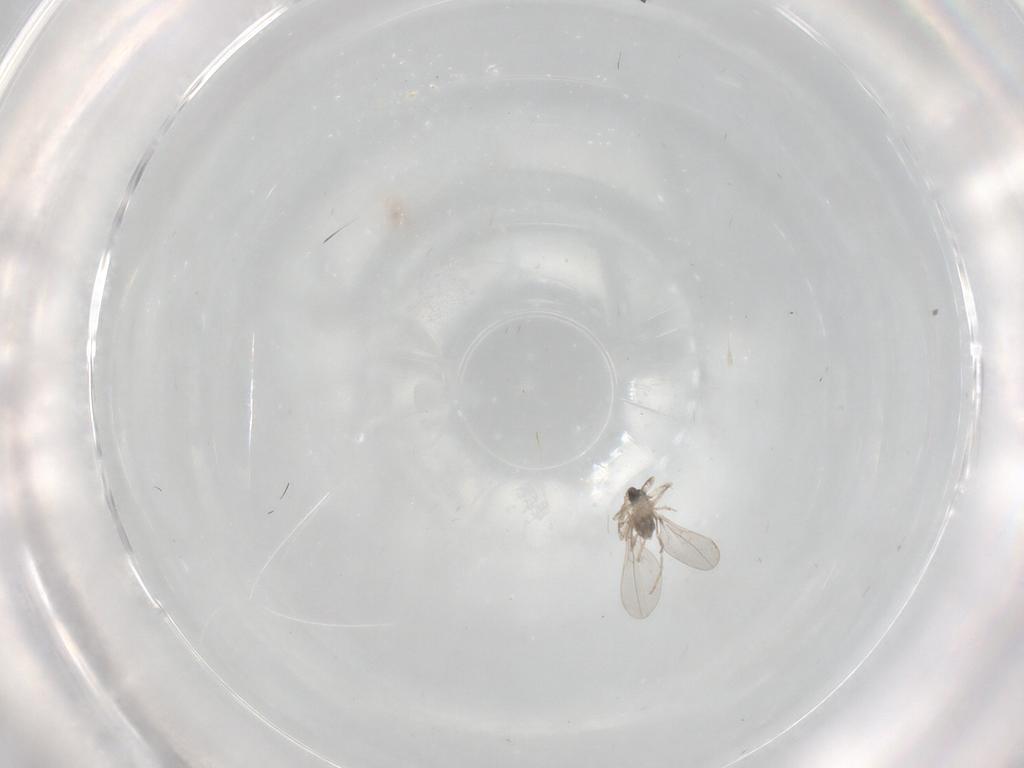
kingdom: Animalia
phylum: Arthropoda
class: Insecta
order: Diptera
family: Cecidomyiidae
